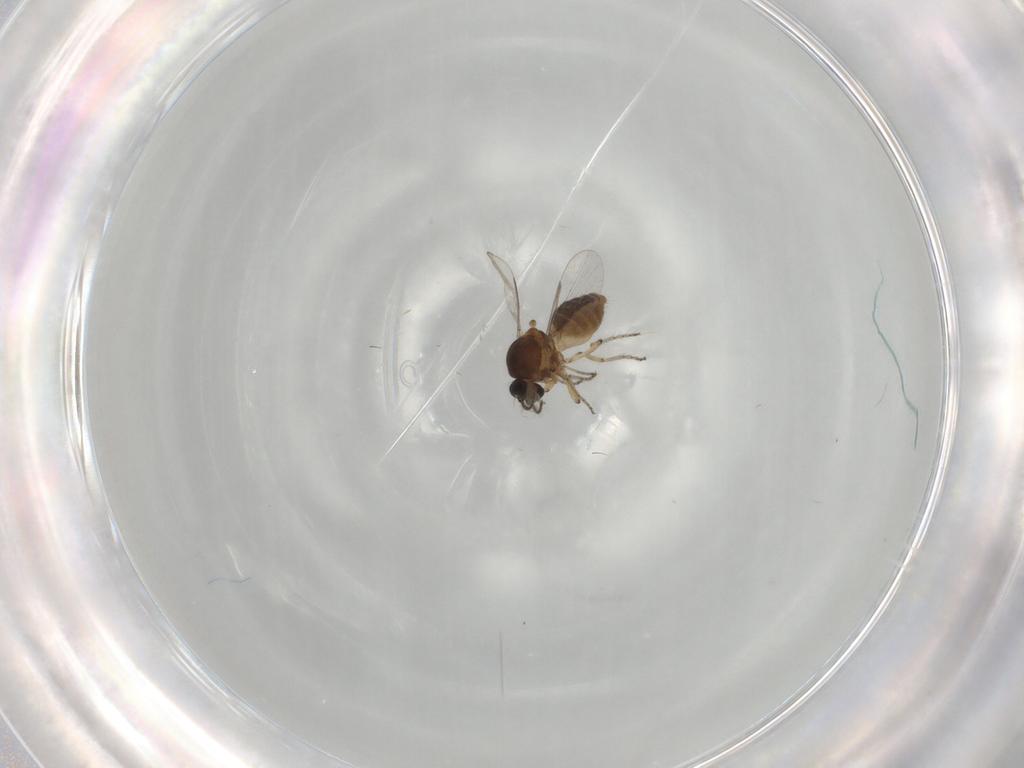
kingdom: Animalia
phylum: Arthropoda
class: Insecta
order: Diptera
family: Ceratopogonidae
